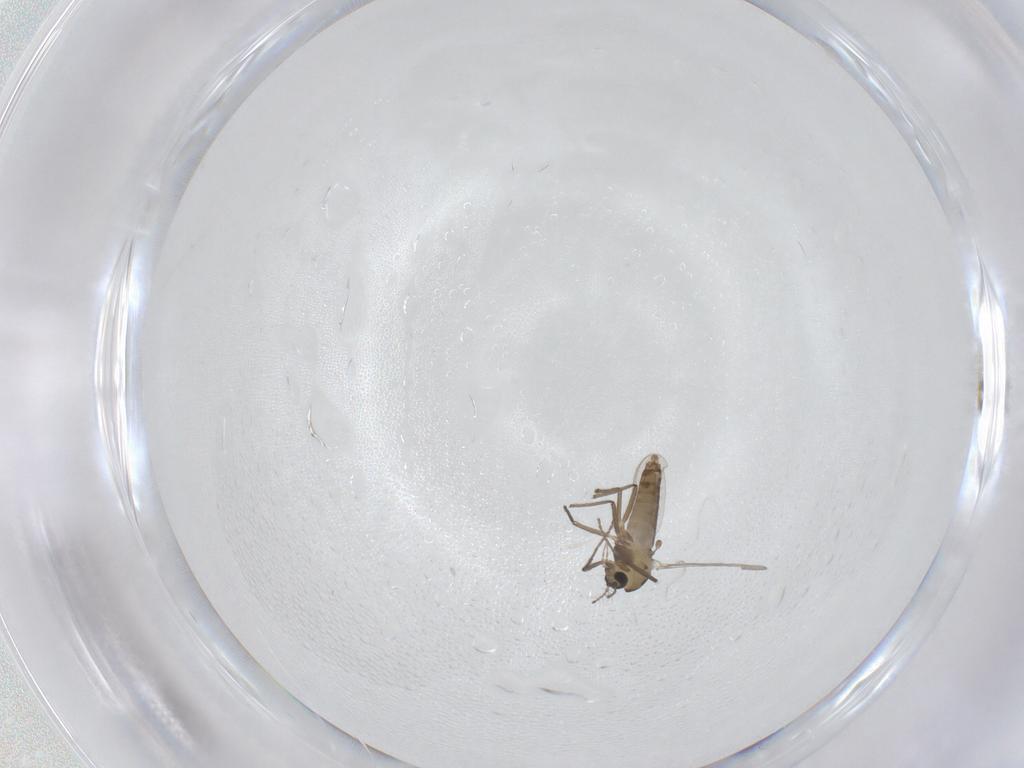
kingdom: Animalia
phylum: Arthropoda
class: Insecta
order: Diptera
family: Chironomidae
